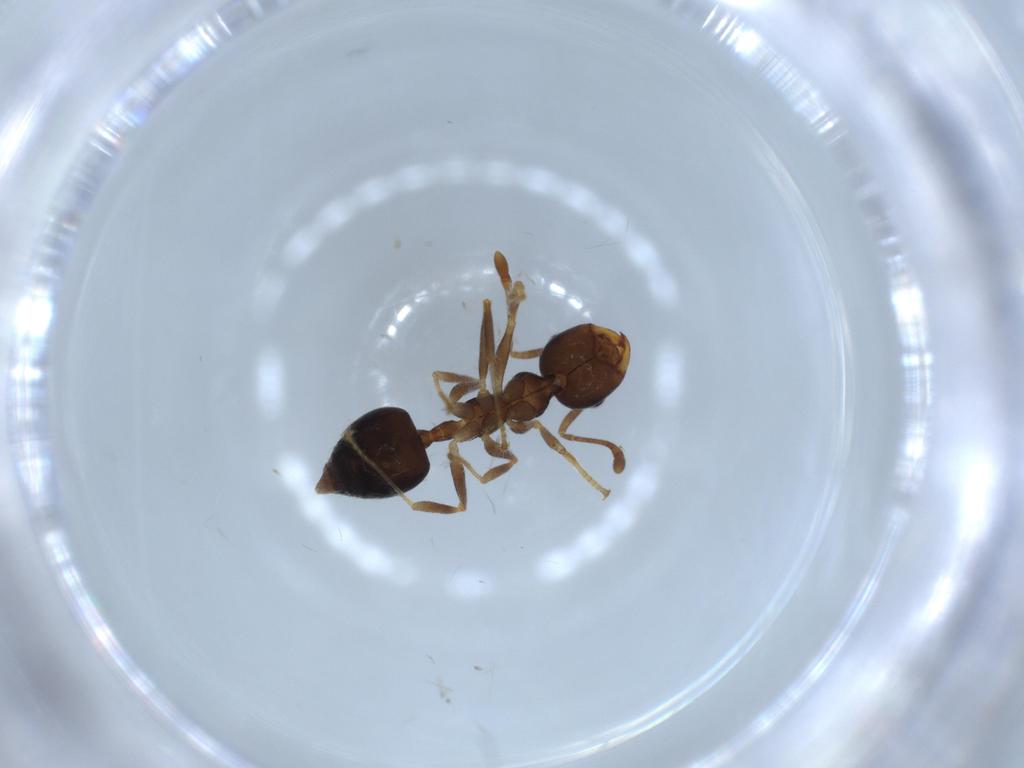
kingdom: Animalia
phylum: Arthropoda
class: Insecta
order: Hymenoptera
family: Formicidae
